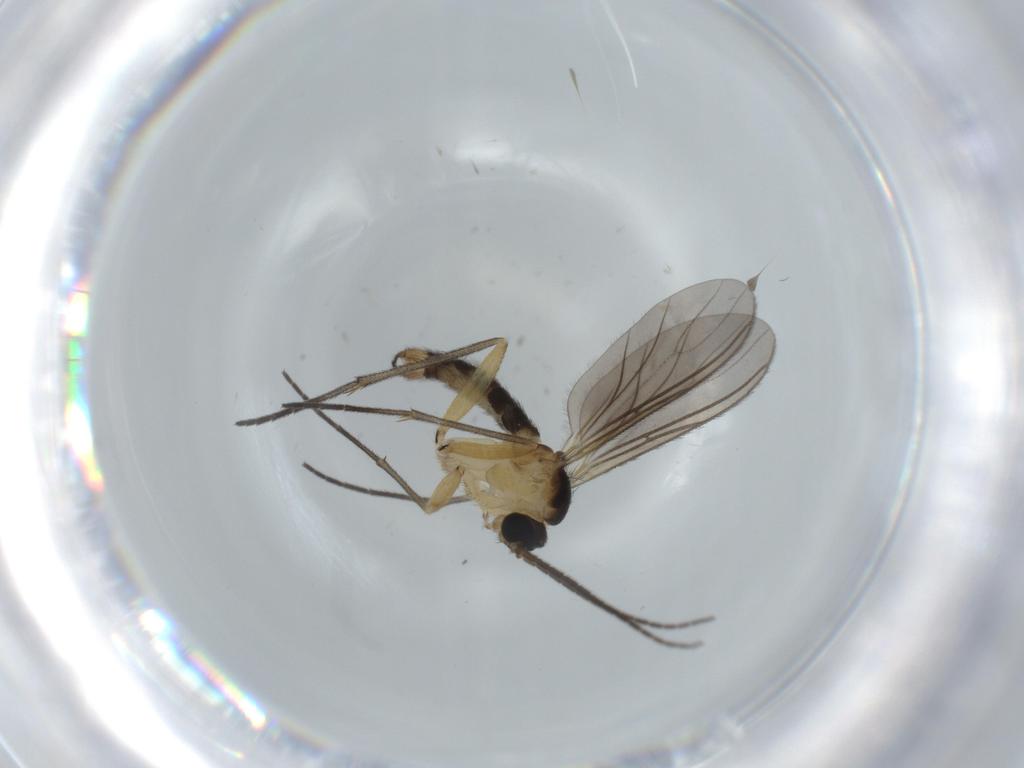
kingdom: Animalia
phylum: Arthropoda
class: Insecta
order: Diptera
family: Sciaridae
